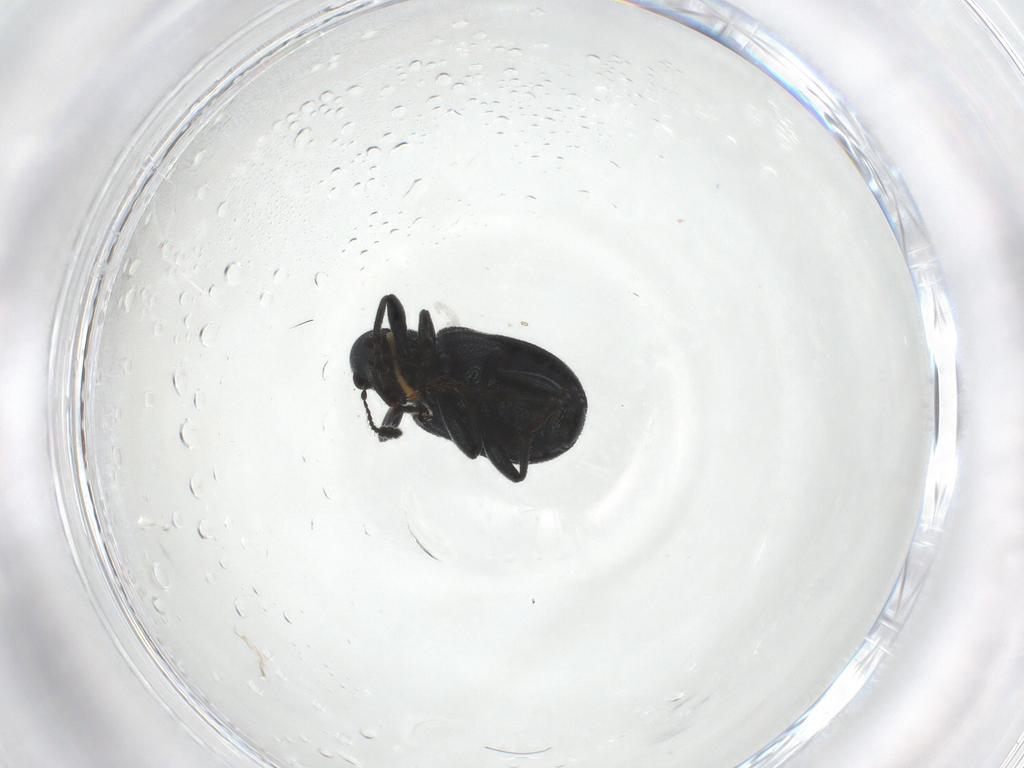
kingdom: Animalia
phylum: Arthropoda
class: Insecta
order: Coleoptera
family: Attelabidae
